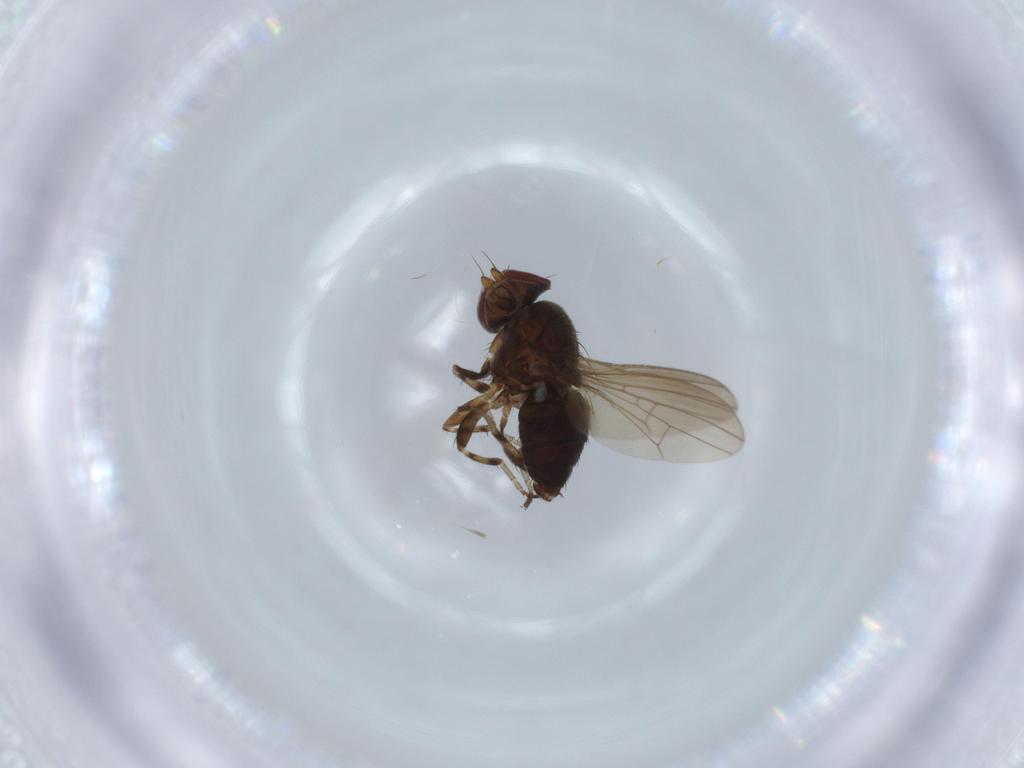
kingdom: Animalia
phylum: Arthropoda
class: Insecta
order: Diptera
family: Heleomyzidae
